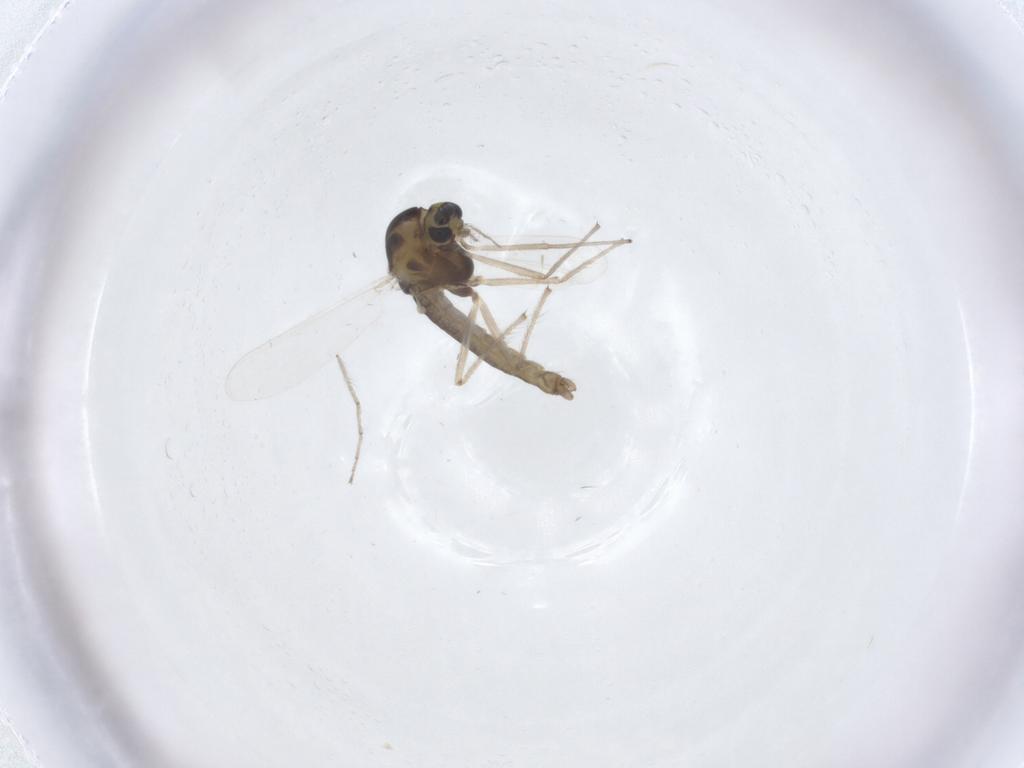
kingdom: Animalia
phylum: Arthropoda
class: Insecta
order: Diptera
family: Chironomidae
